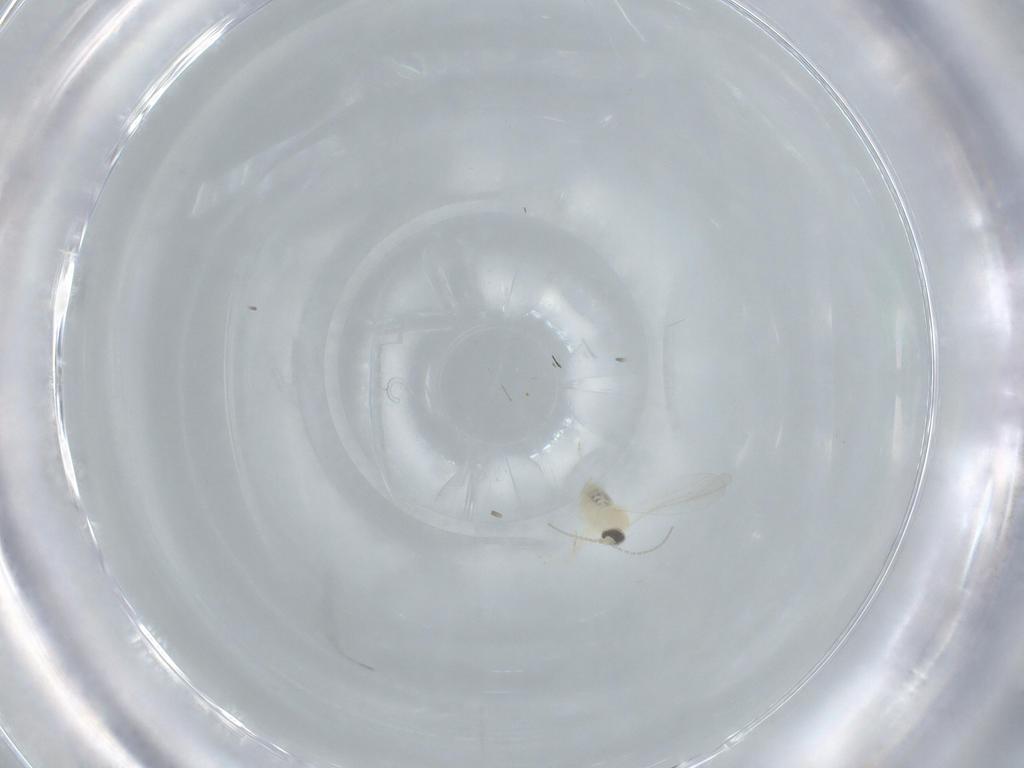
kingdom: Animalia
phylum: Arthropoda
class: Insecta
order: Diptera
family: Cecidomyiidae
